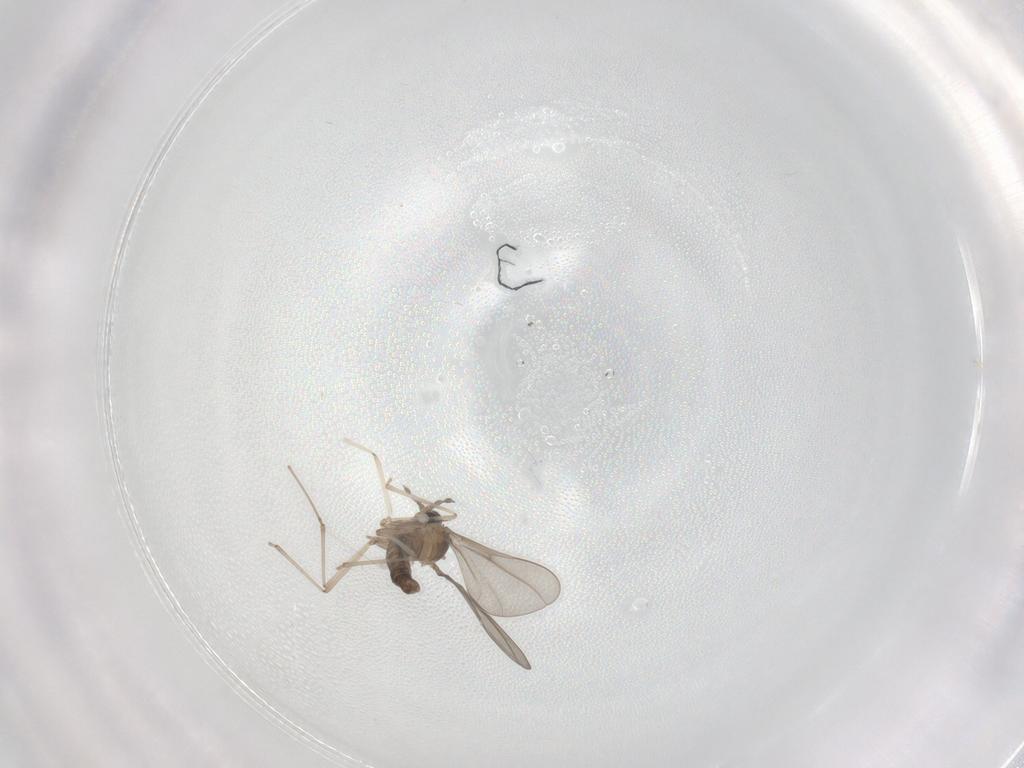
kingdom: Animalia
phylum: Arthropoda
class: Insecta
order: Diptera
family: Cecidomyiidae
